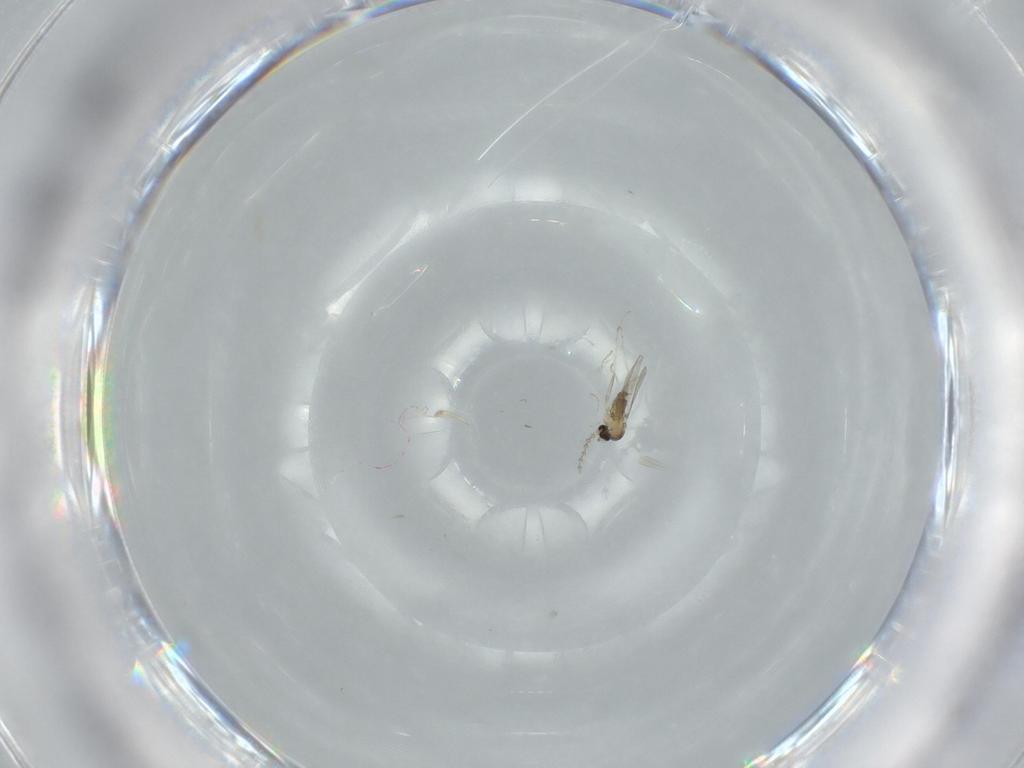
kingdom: Animalia
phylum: Arthropoda
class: Insecta
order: Diptera
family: Cecidomyiidae
